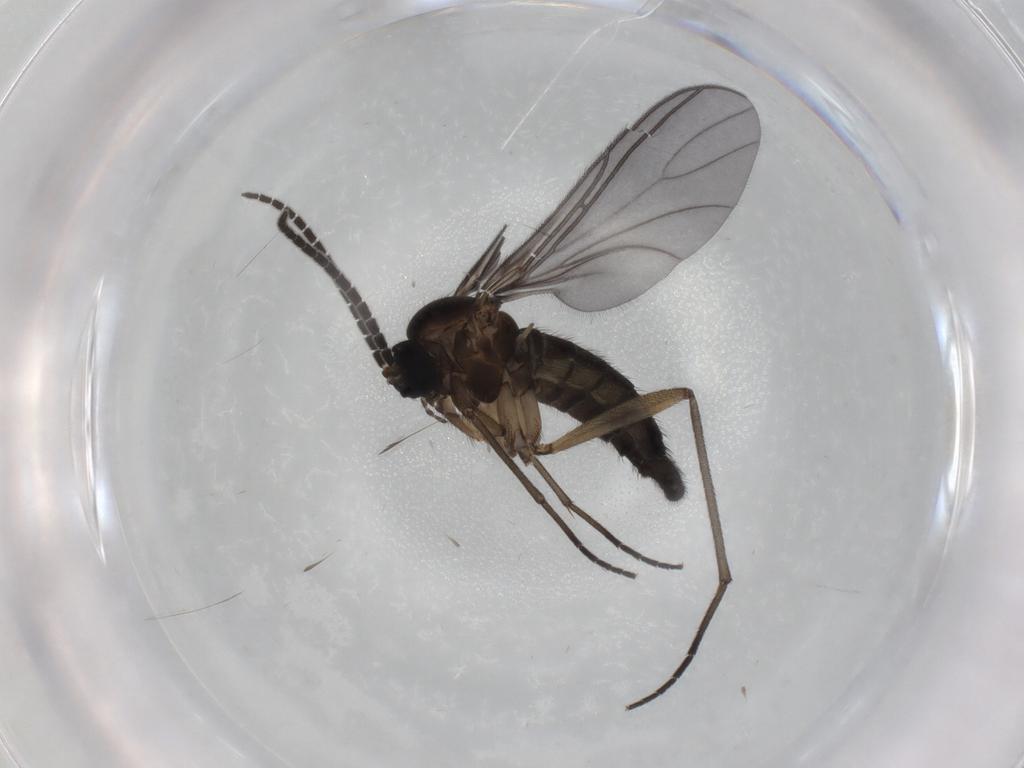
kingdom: Animalia
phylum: Arthropoda
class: Insecta
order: Diptera
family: Sciaridae
